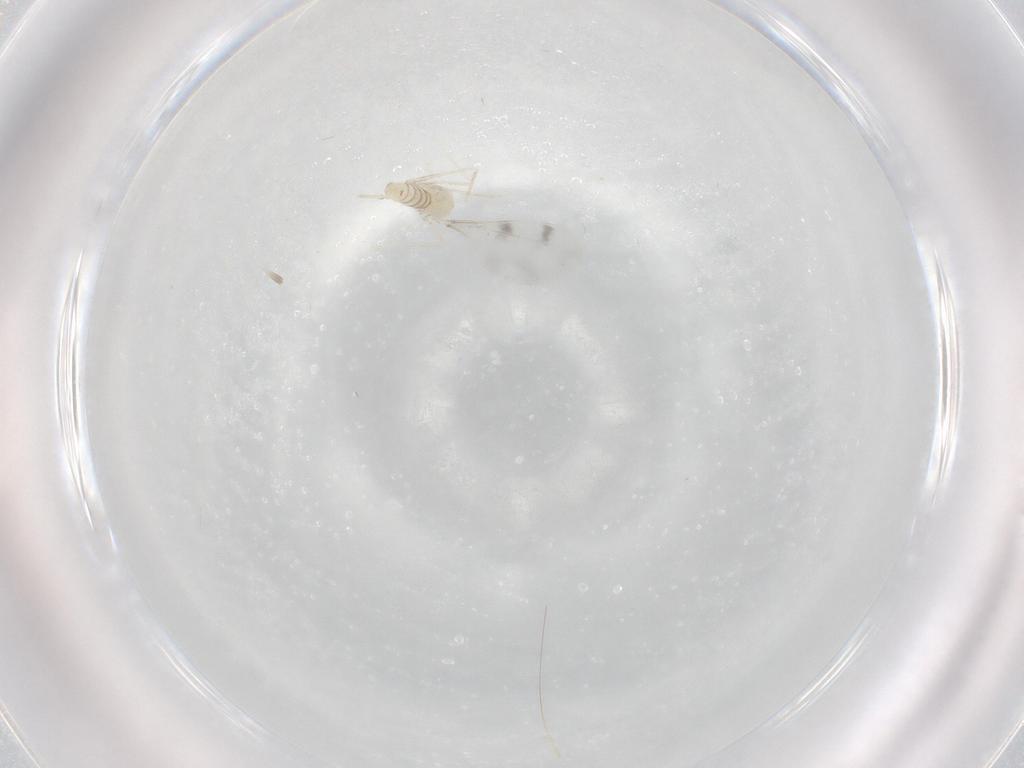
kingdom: Animalia
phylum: Arthropoda
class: Insecta
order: Diptera
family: Cecidomyiidae
